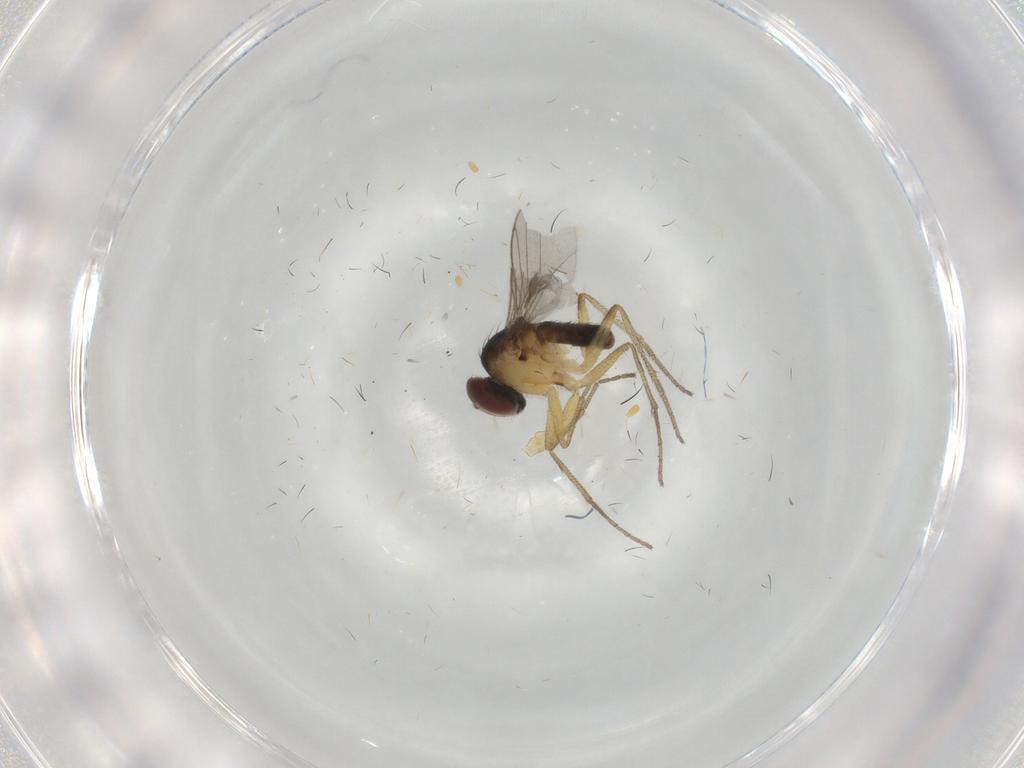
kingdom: Animalia
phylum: Arthropoda
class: Insecta
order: Diptera
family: Dolichopodidae
